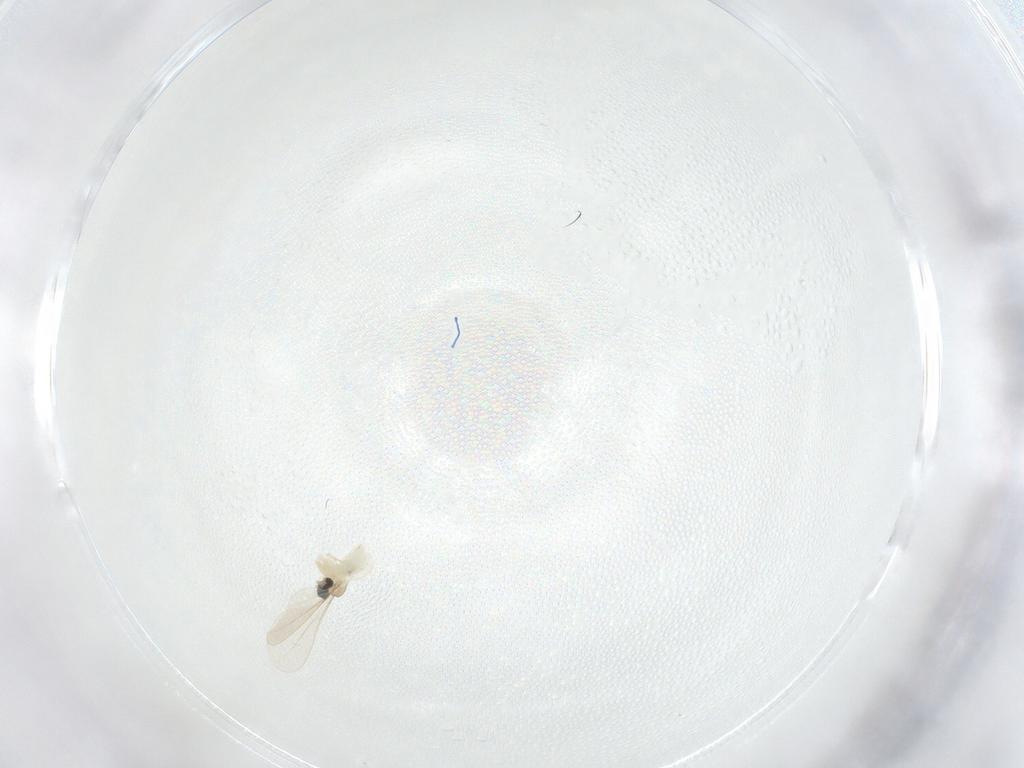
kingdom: Animalia
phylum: Arthropoda
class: Insecta
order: Diptera
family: Cecidomyiidae
